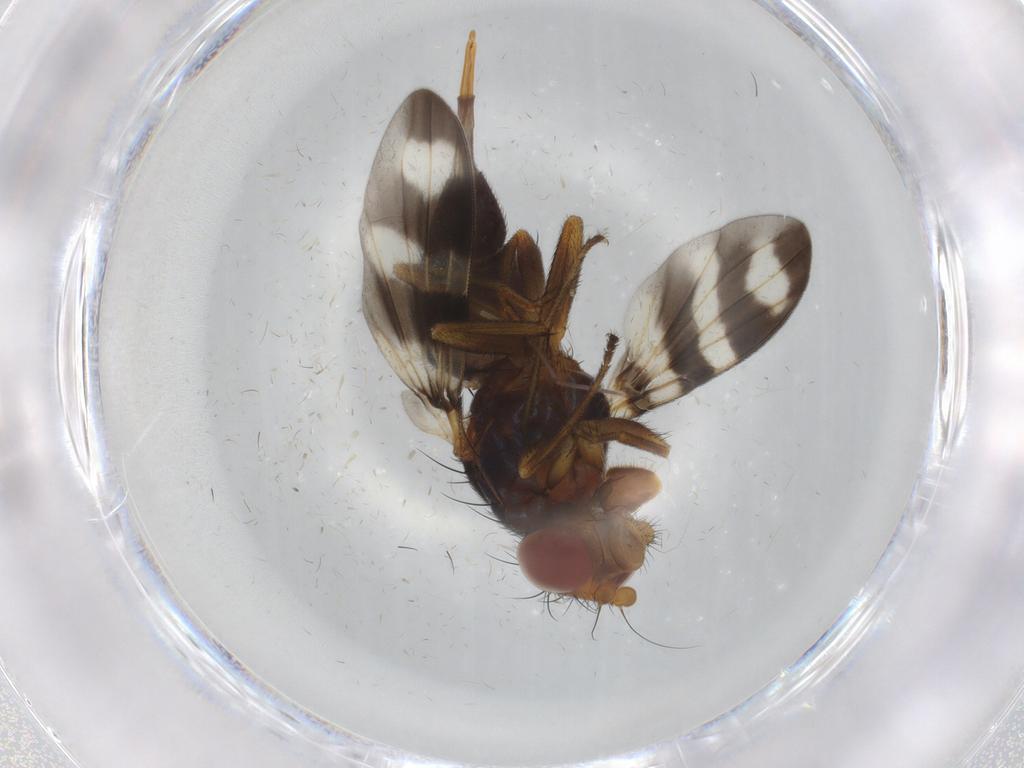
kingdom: Animalia
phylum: Arthropoda
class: Insecta
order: Diptera
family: Ulidiidae
